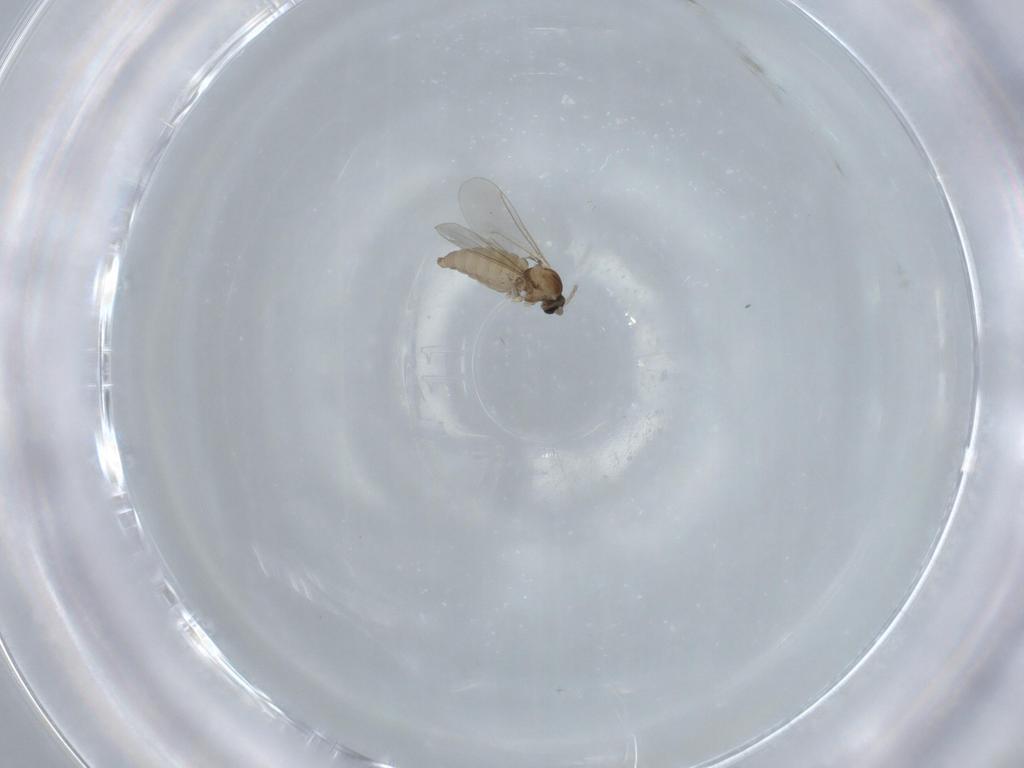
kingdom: Animalia
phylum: Arthropoda
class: Insecta
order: Diptera
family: Cecidomyiidae
